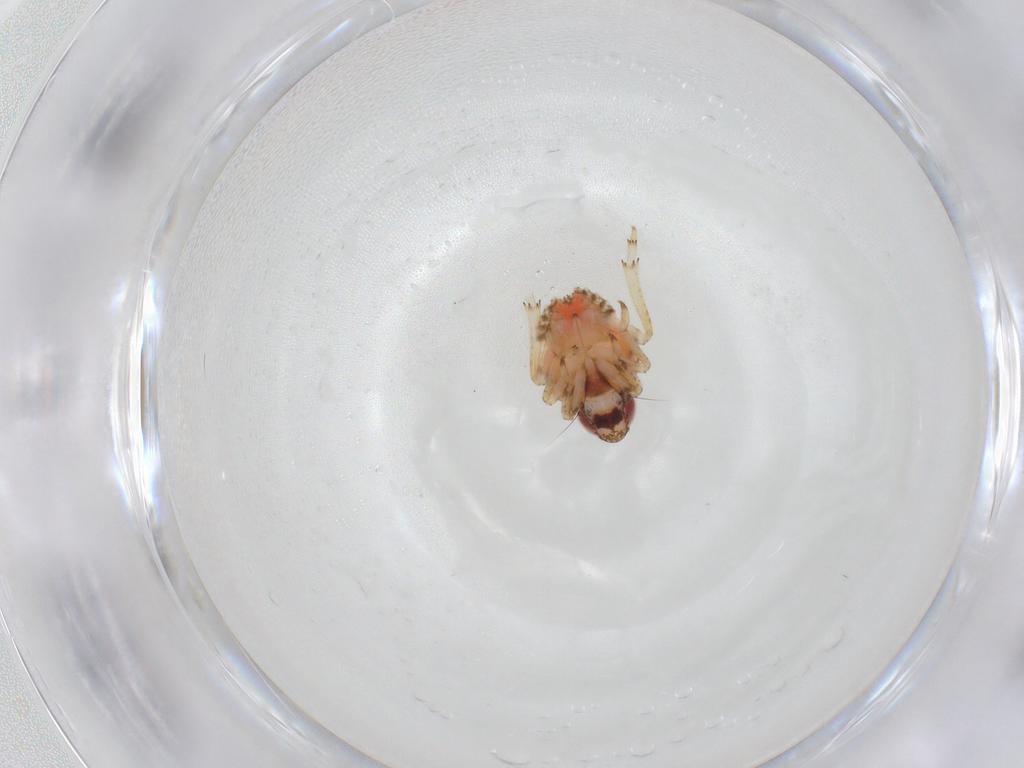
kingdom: Animalia
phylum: Arthropoda
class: Insecta
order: Hemiptera
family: Issidae
